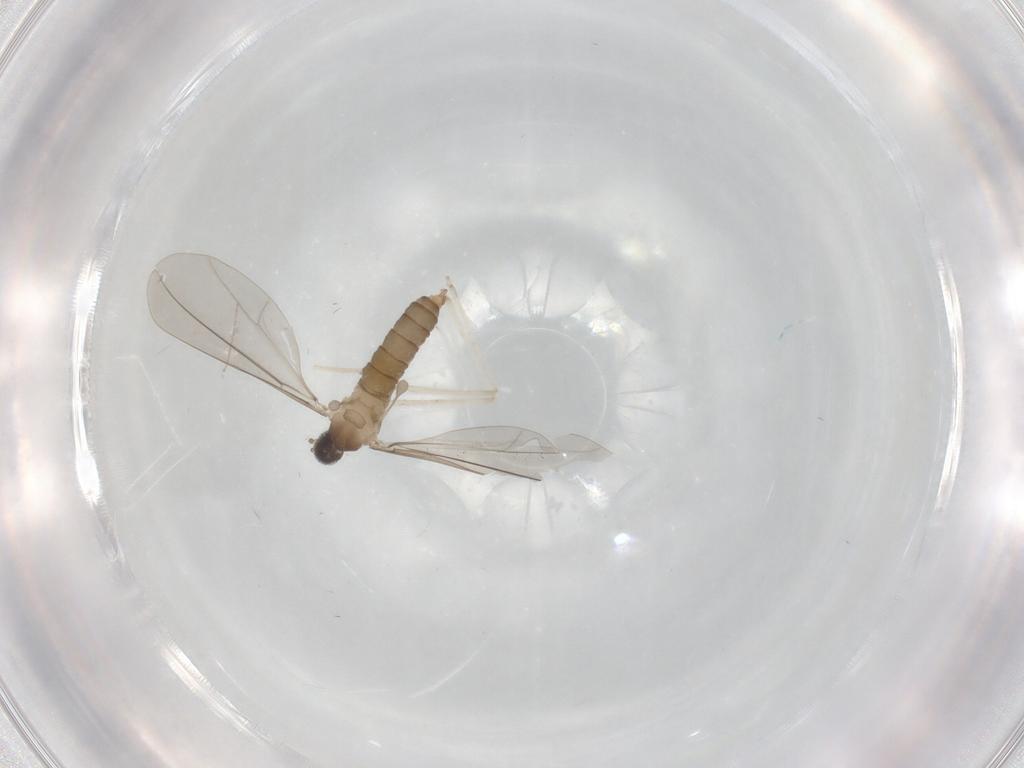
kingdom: Animalia
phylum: Arthropoda
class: Insecta
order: Diptera
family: Cecidomyiidae
